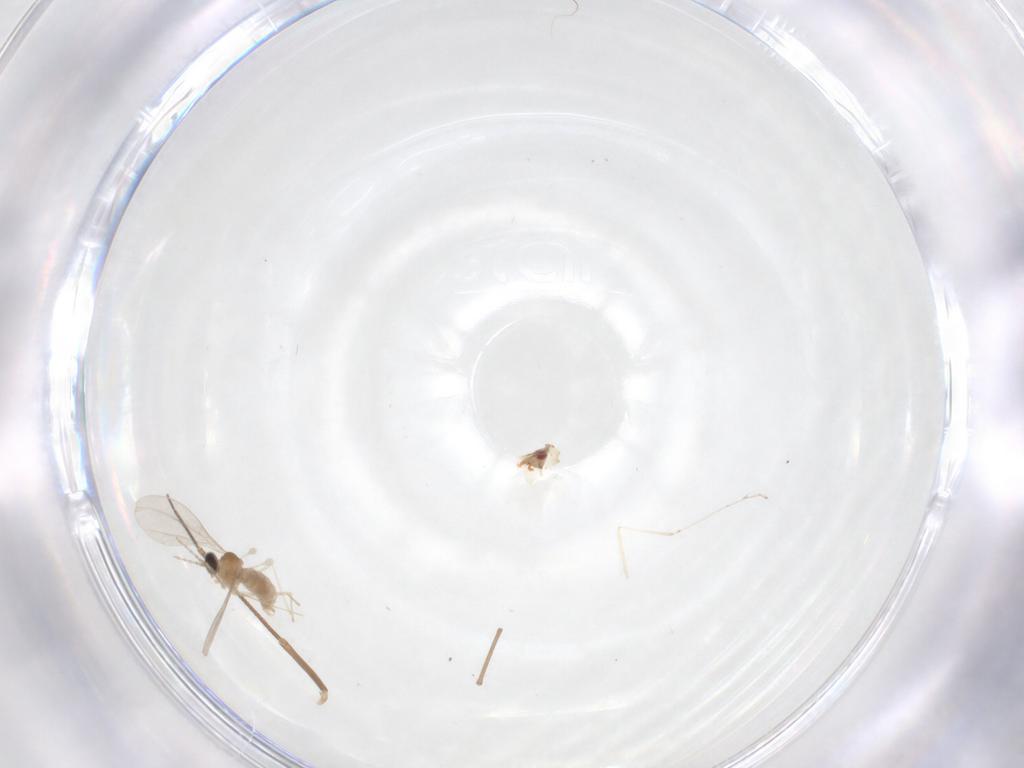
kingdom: Animalia
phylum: Arthropoda
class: Insecta
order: Diptera
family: Cecidomyiidae
